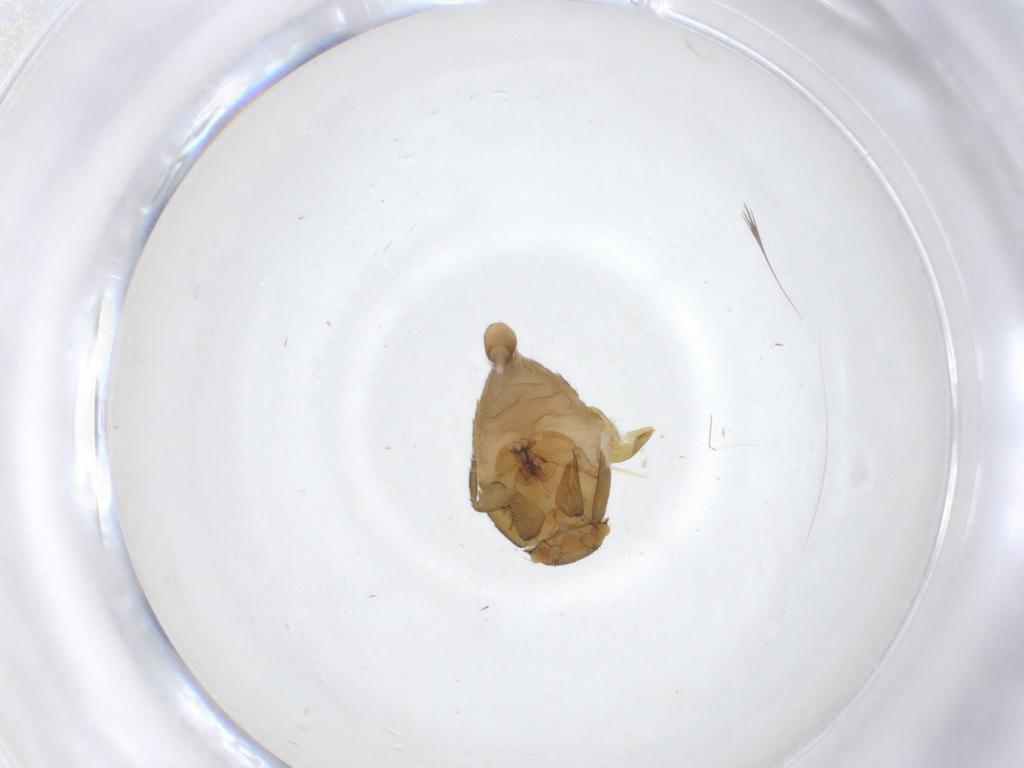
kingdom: Animalia
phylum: Arthropoda
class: Insecta
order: Diptera
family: Phoridae
